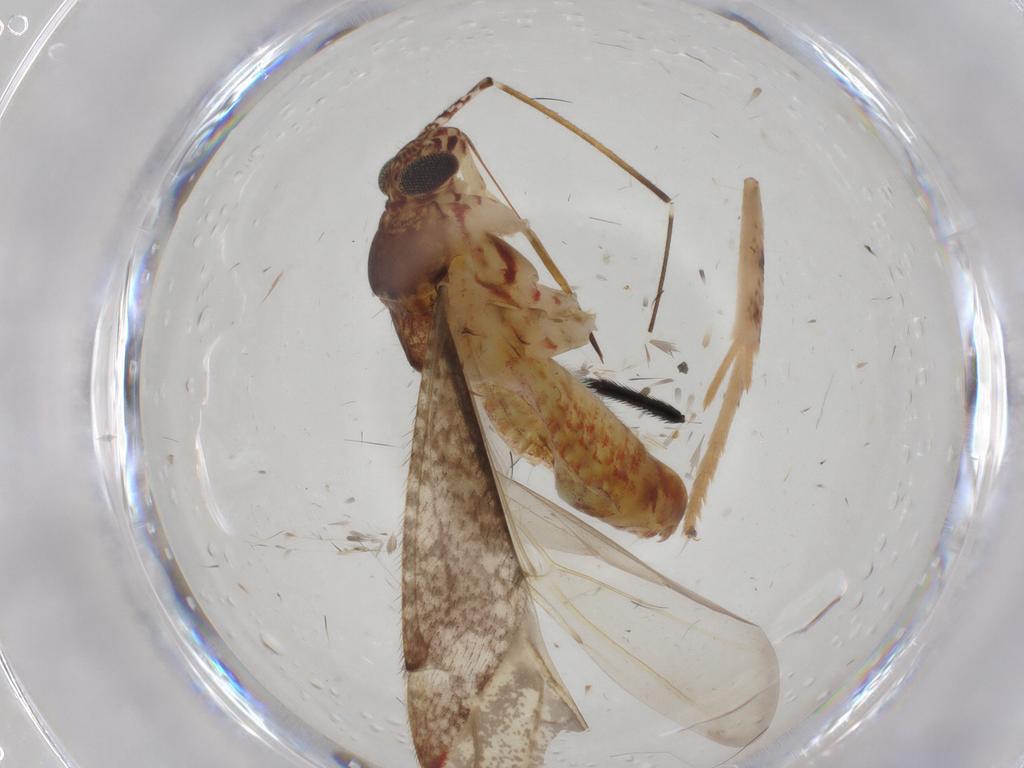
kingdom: Animalia
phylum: Arthropoda
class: Insecta
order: Hemiptera
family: Miridae
